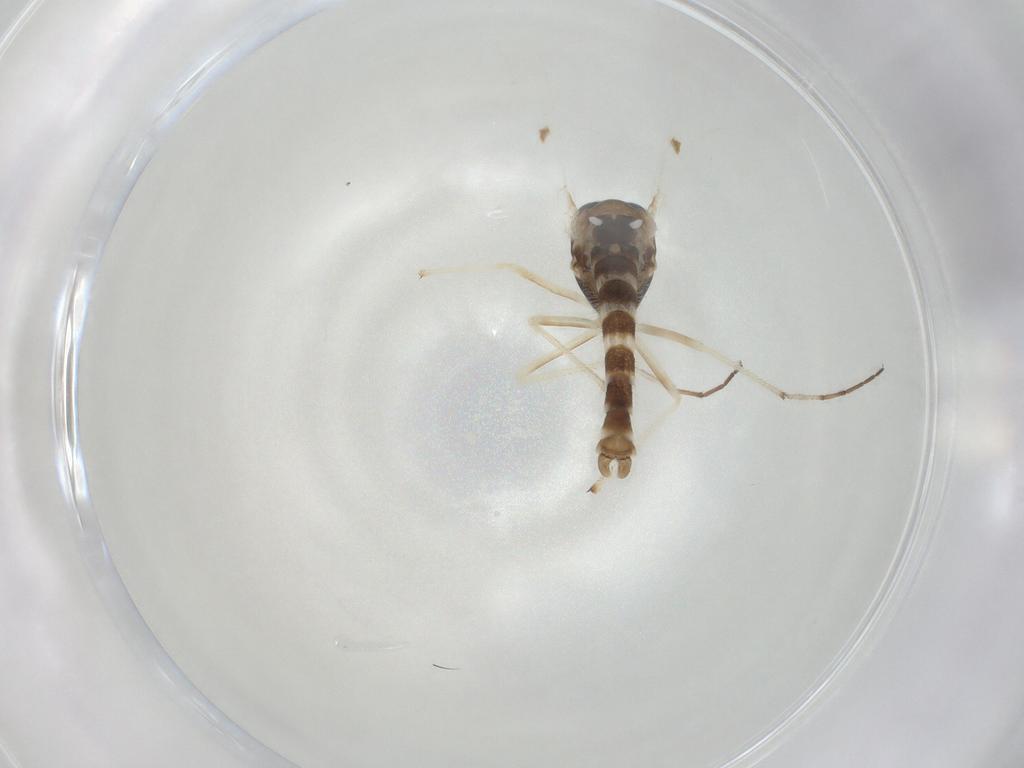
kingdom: Animalia
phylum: Arthropoda
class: Insecta
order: Diptera
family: Chironomidae
